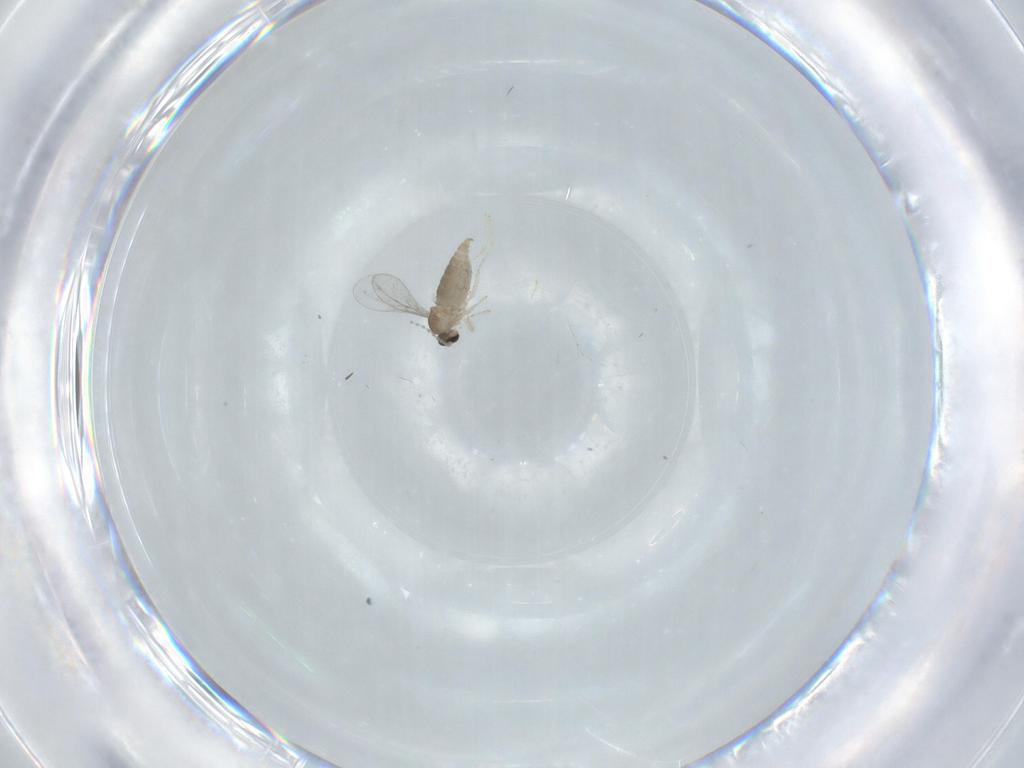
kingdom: Animalia
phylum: Arthropoda
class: Insecta
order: Diptera
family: Cecidomyiidae
